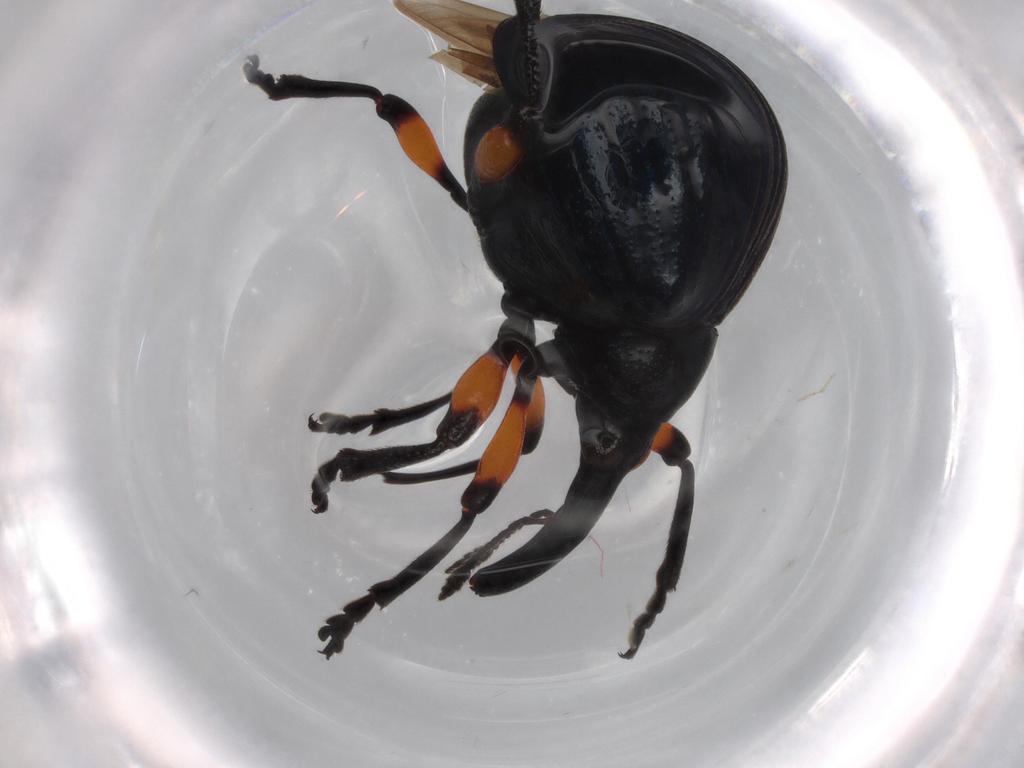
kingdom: Animalia
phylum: Arthropoda
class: Insecta
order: Coleoptera
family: Brentidae
